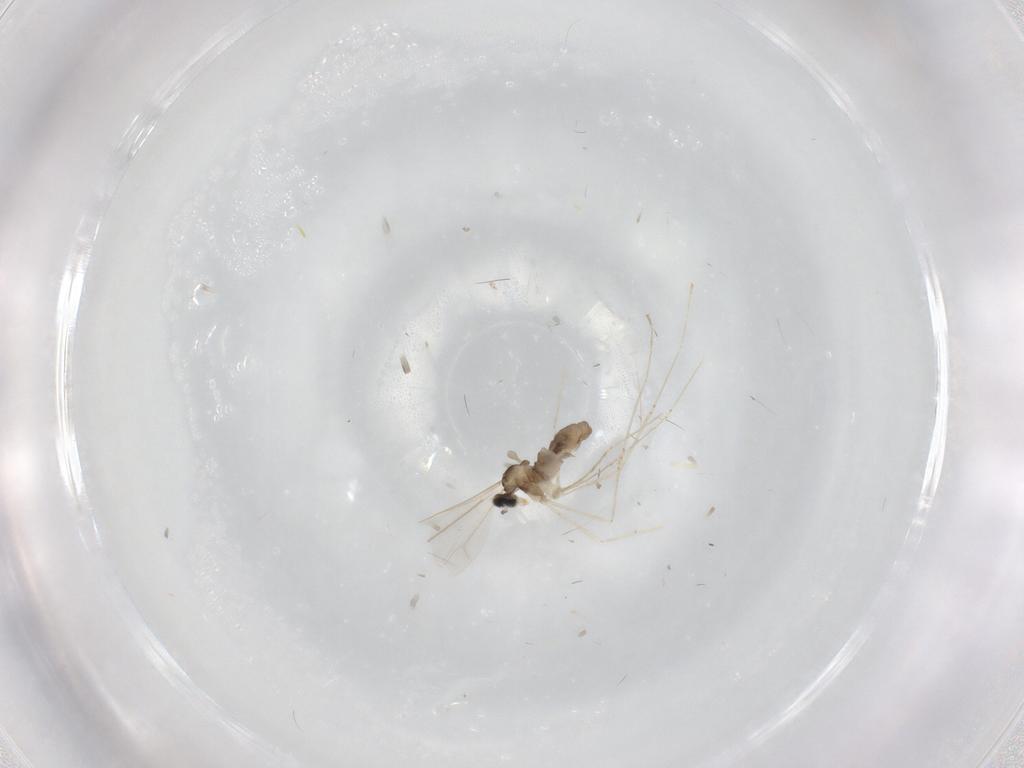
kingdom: Animalia
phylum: Arthropoda
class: Insecta
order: Diptera
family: Cecidomyiidae
